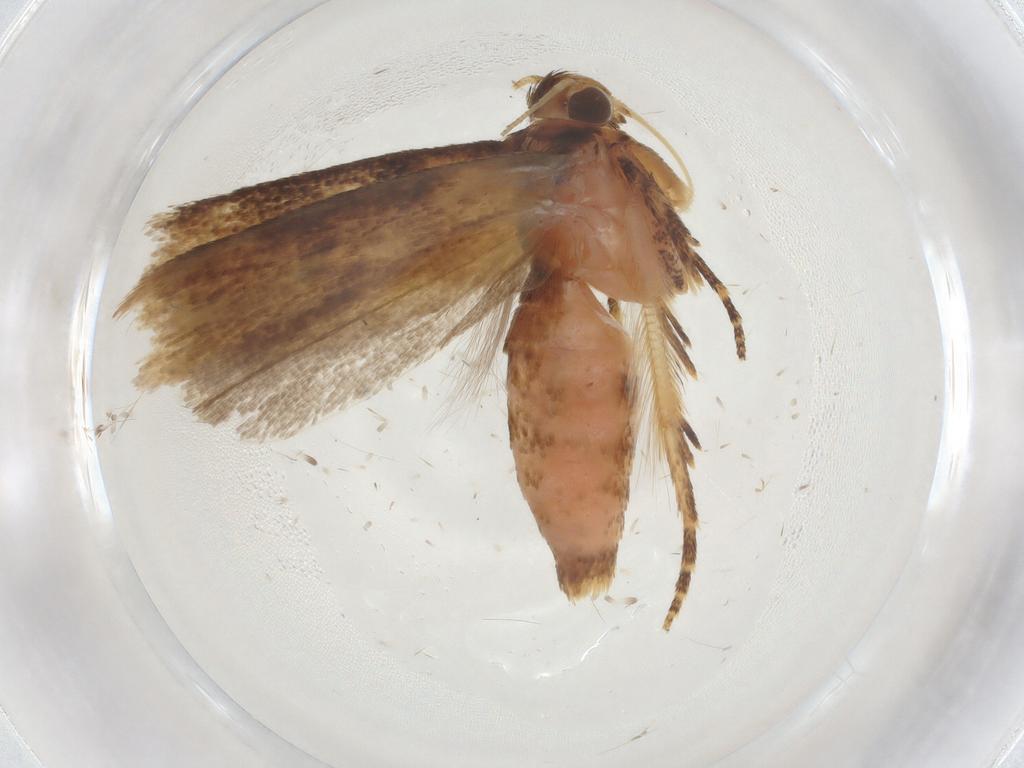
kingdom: Animalia
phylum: Arthropoda
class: Insecta
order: Lepidoptera
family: Gelechiidae
